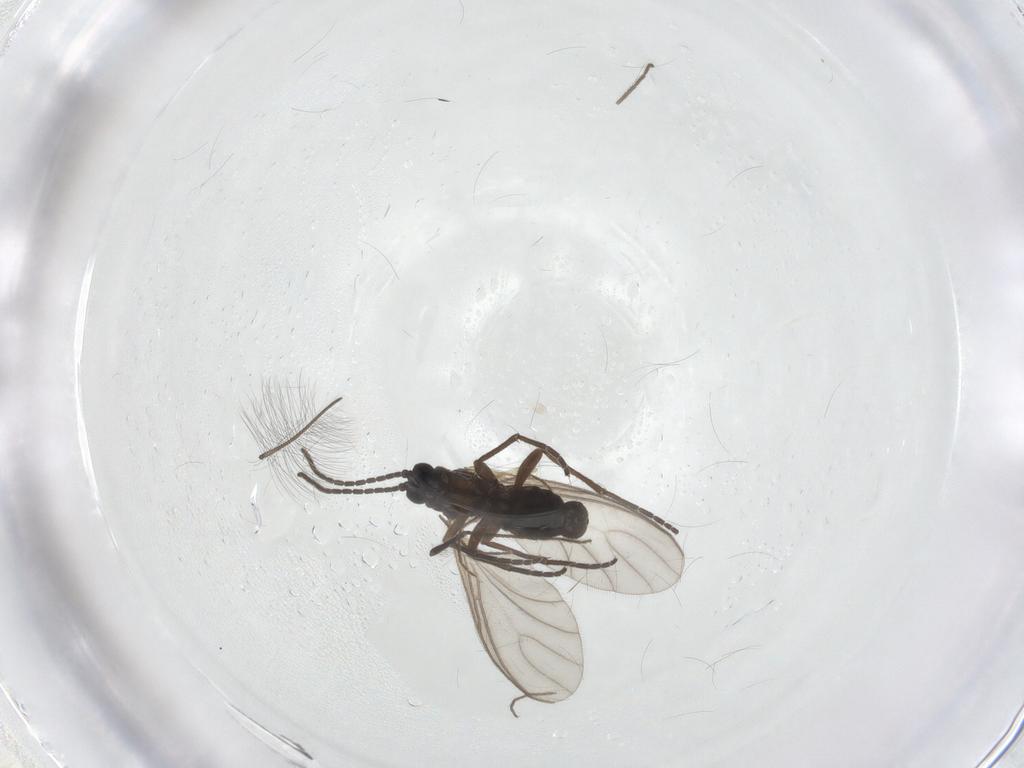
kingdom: Animalia
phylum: Arthropoda
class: Insecta
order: Diptera
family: Sciaridae
